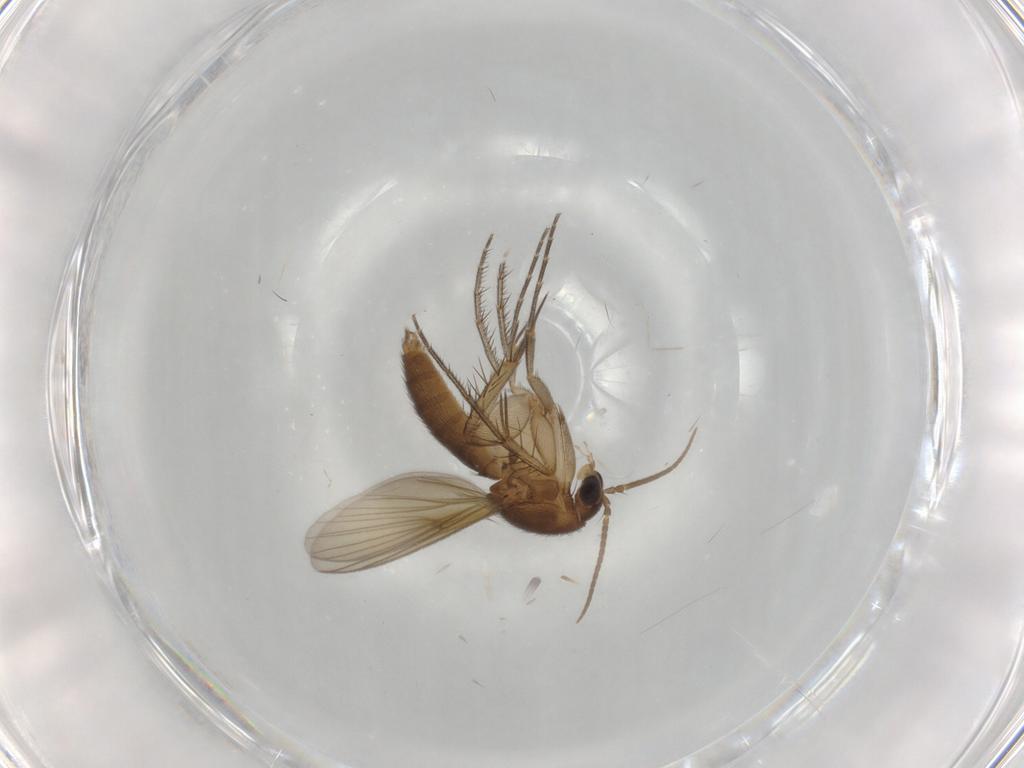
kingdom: Animalia
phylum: Arthropoda
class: Insecta
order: Diptera
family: Mycetophilidae
